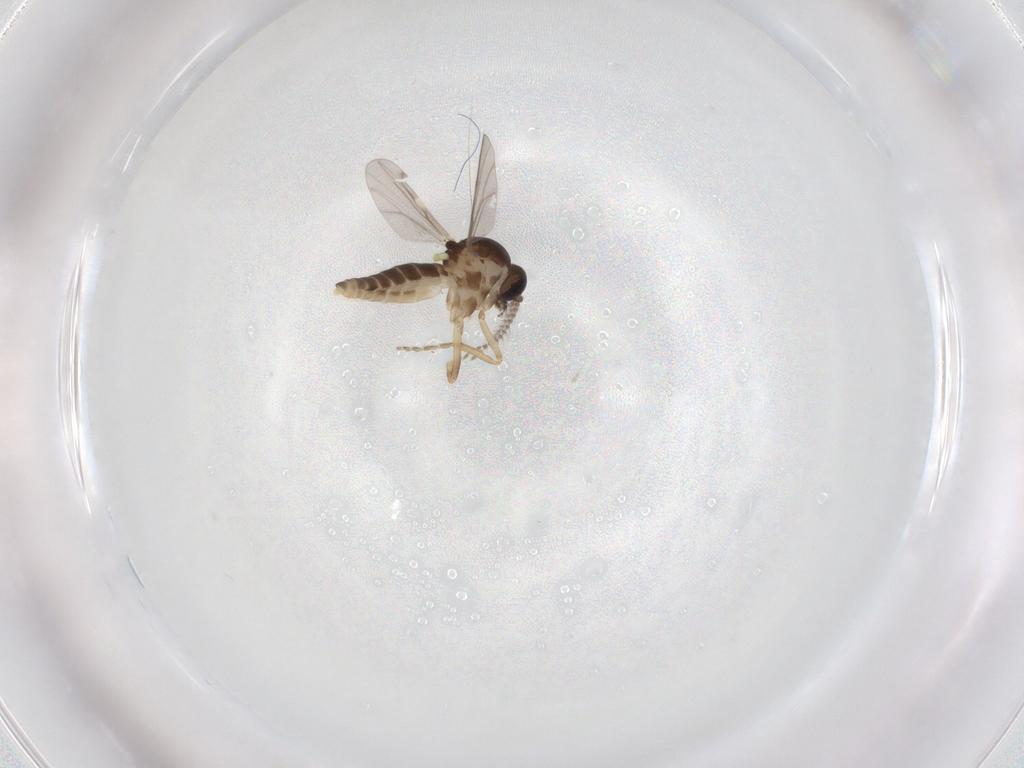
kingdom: Animalia
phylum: Arthropoda
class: Insecta
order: Diptera
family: Ceratopogonidae
